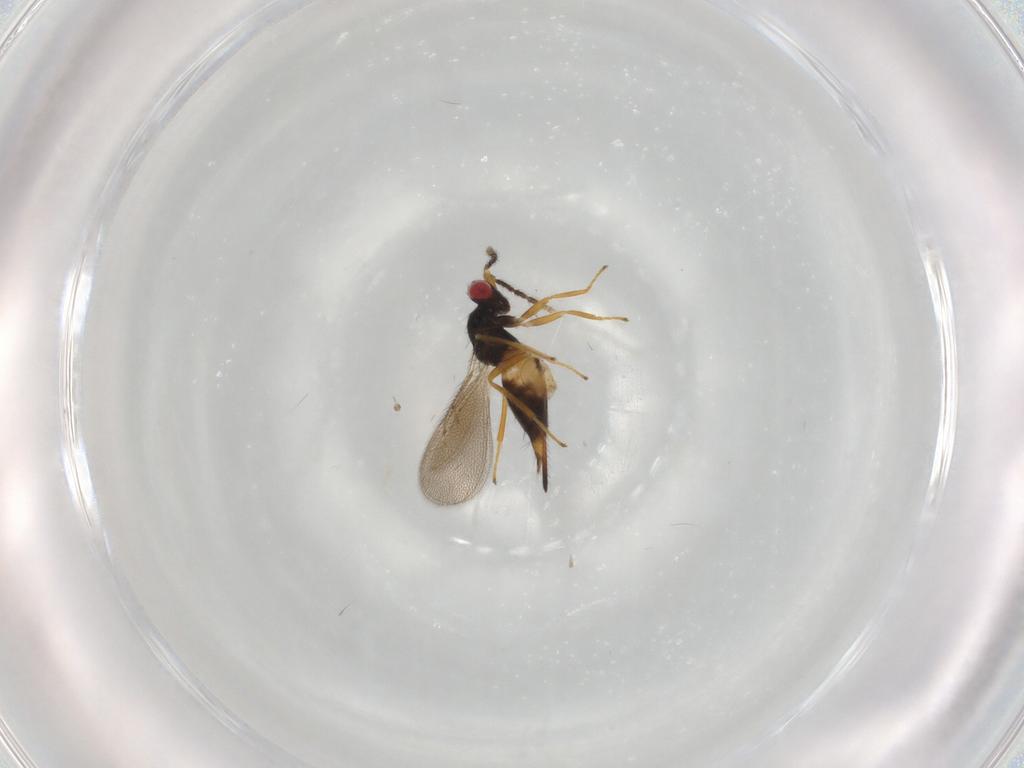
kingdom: Animalia
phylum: Arthropoda
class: Insecta
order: Hymenoptera
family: Eulophidae
